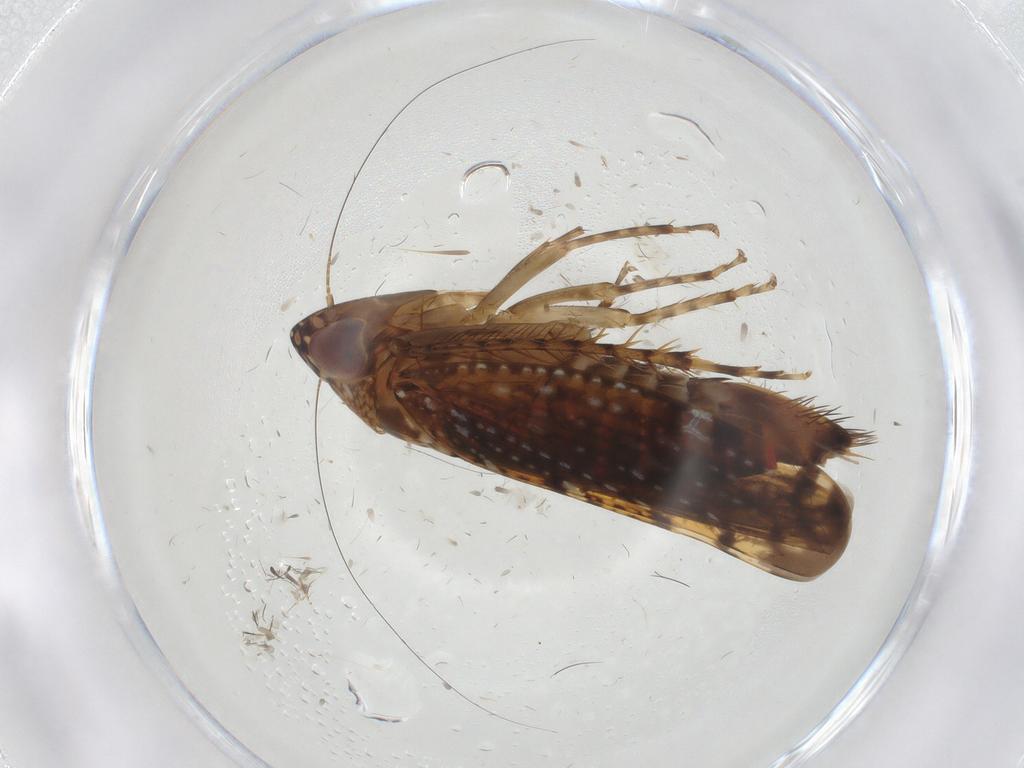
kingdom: Animalia
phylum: Arthropoda
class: Insecta
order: Hemiptera
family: Cicadellidae
